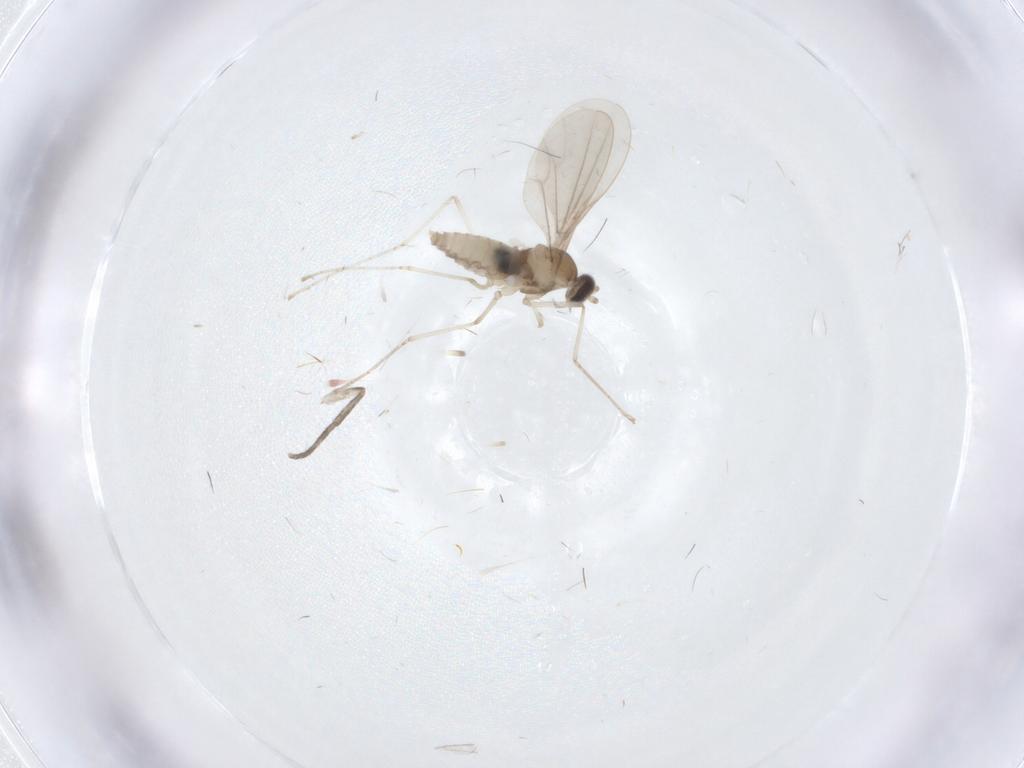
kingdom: Animalia
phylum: Arthropoda
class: Insecta
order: Diptera
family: Cecidomyiidae
